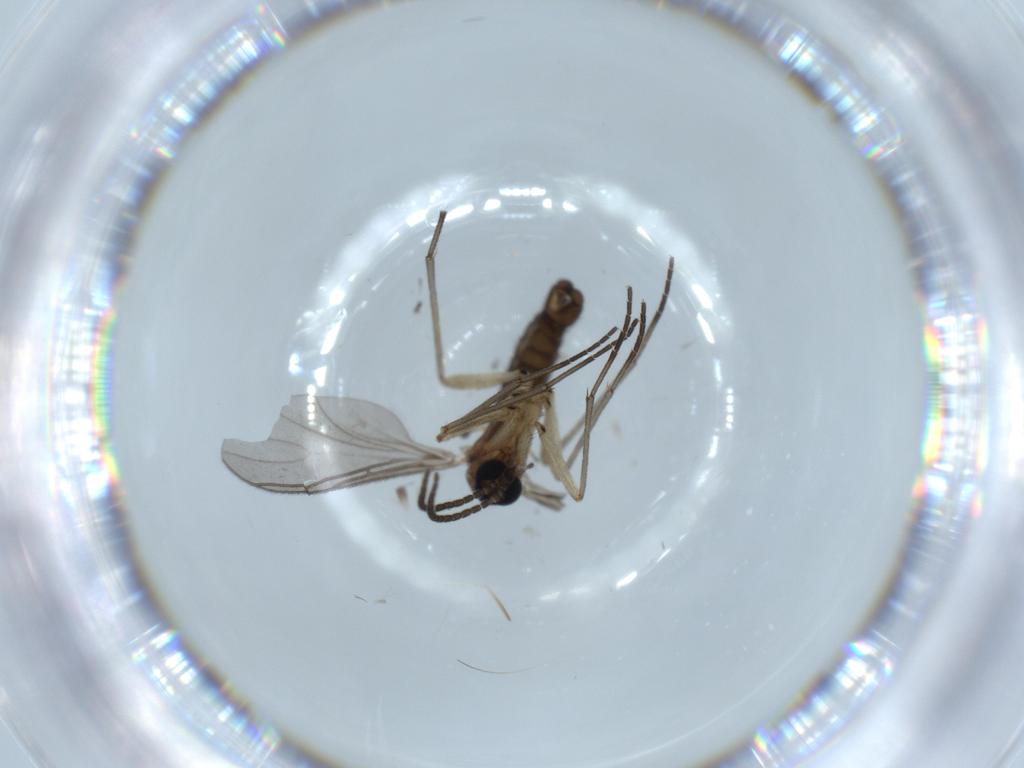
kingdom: Animalia
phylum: Arthropoda
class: Insecta
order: Diptera
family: Sciaridae
